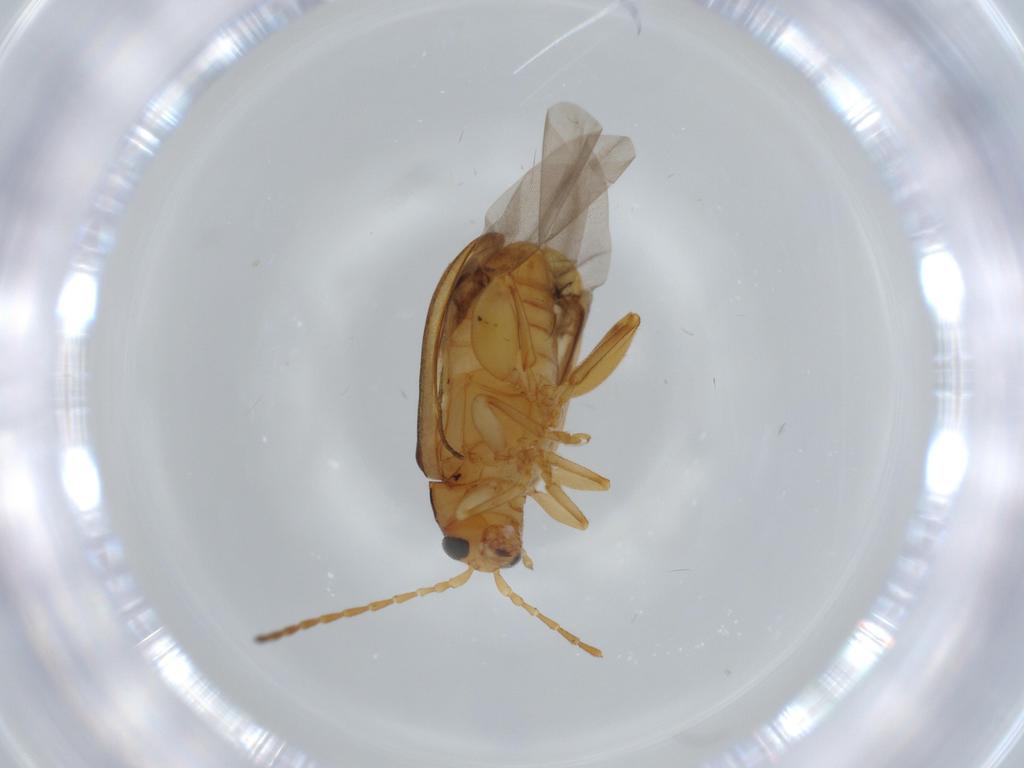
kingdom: Animalia
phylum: Arthropoda
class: Insecta
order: Coleoptera
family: Chrysomelidae
